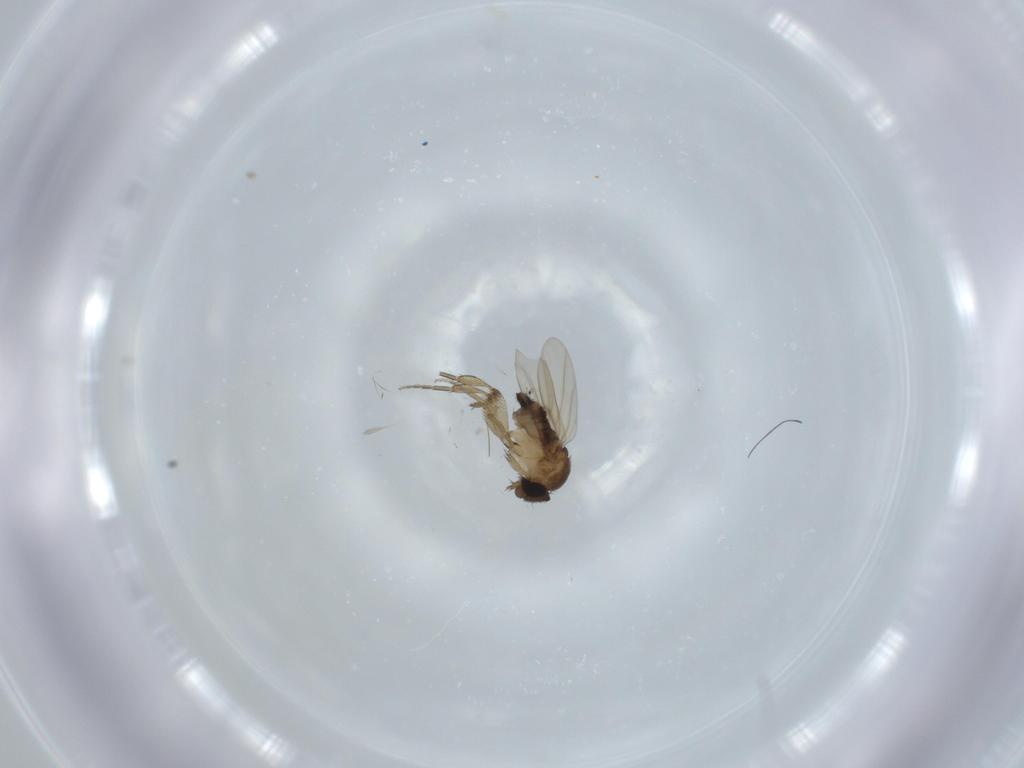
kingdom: Animalia
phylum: Arthropoda
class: Insecta
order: Diptera
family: Phoridae
